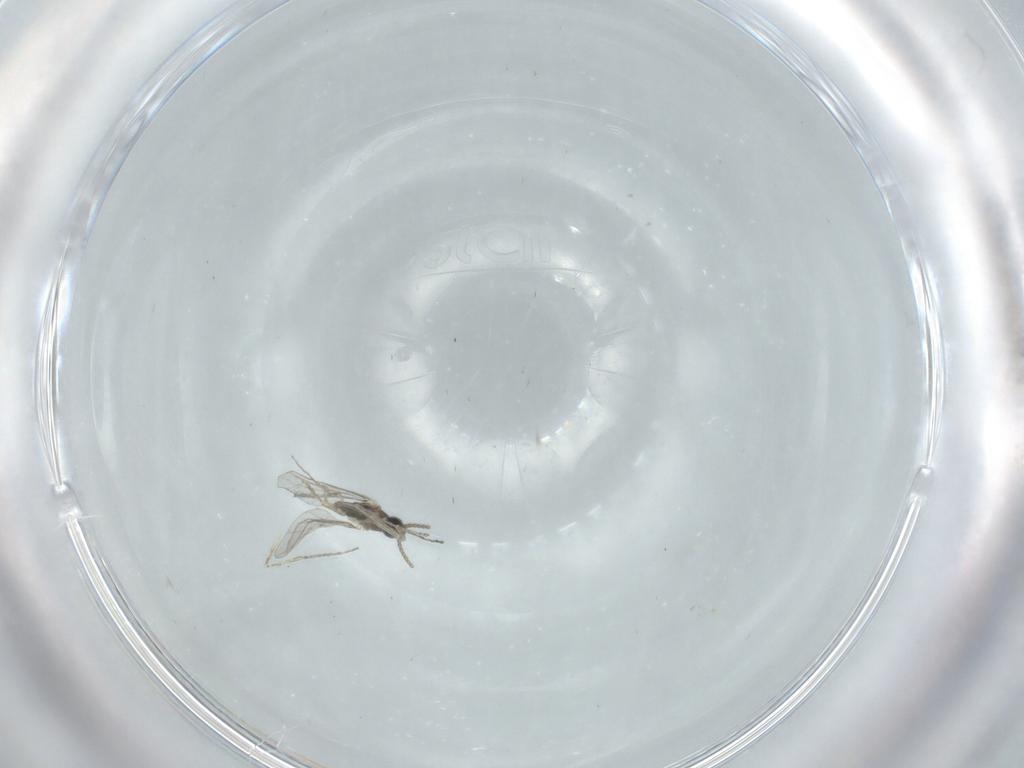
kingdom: Animalia
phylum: Arthropoda
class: Insecta
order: Diptera
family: Cecidomyiidae
